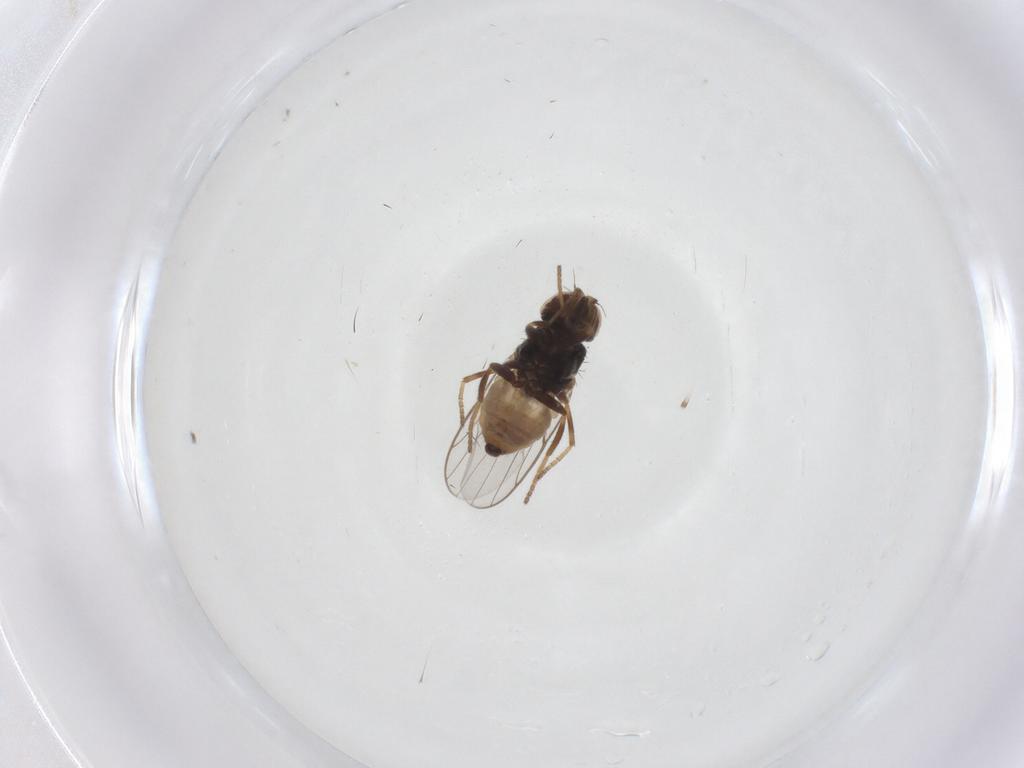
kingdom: Animalia
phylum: Arthropoda
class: Insecta
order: Diptera
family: Chloropidae
